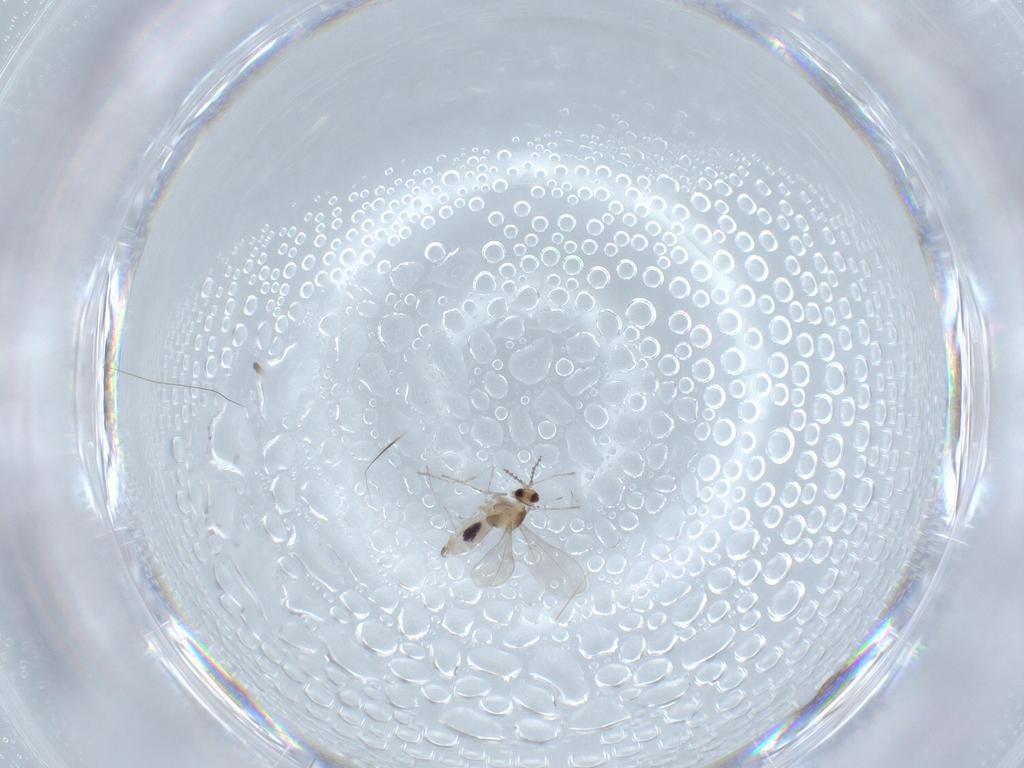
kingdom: Animalia
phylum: Arthropoda
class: Insecta
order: Diptera
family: Cecidomyiidae
